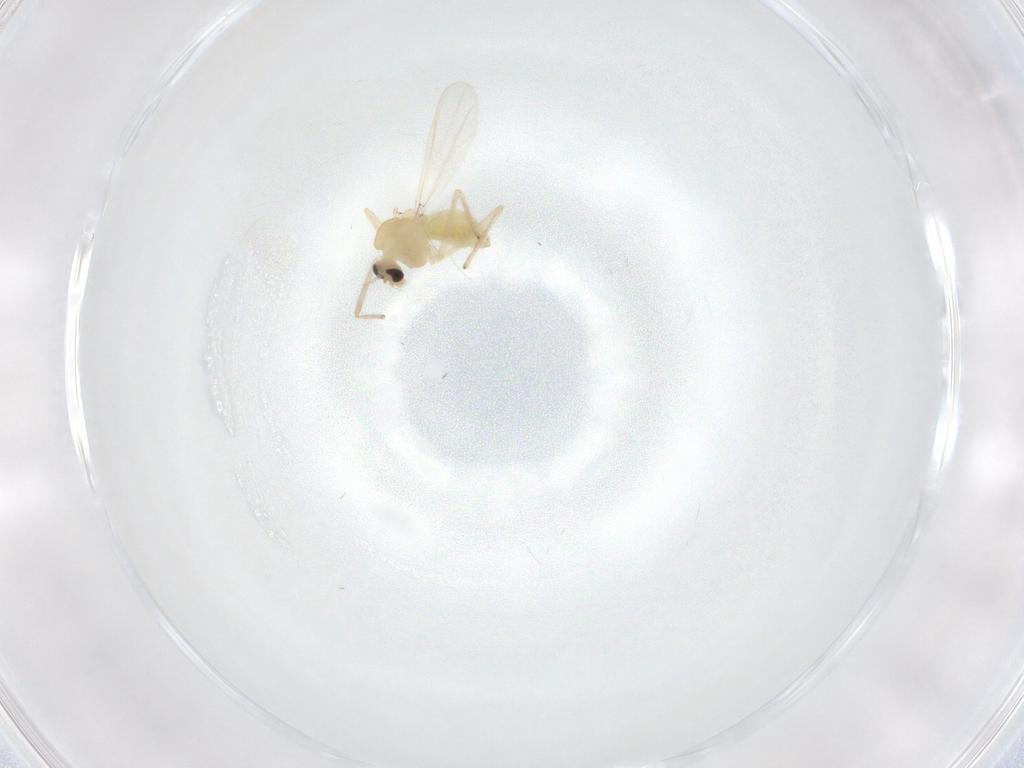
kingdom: Animalia
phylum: Arthropoda
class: Insecta
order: Diptera
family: Chironomidae
